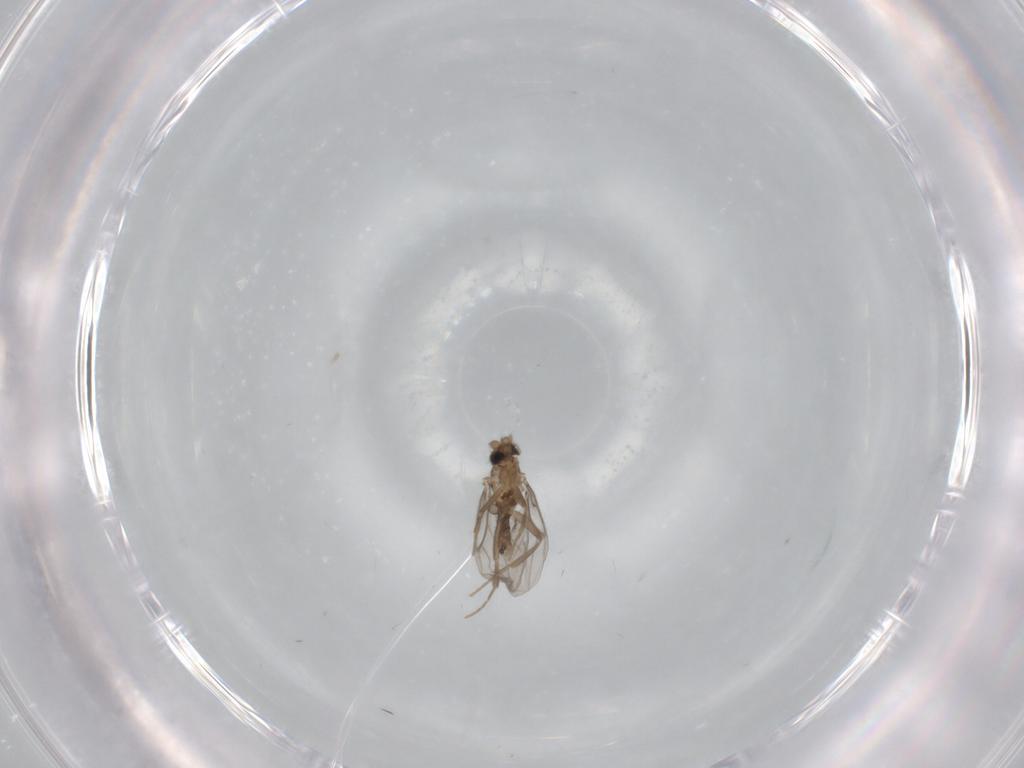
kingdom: Animalia
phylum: Arthropoda
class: Insecta
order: Diptera
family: Cecidomyiidae
